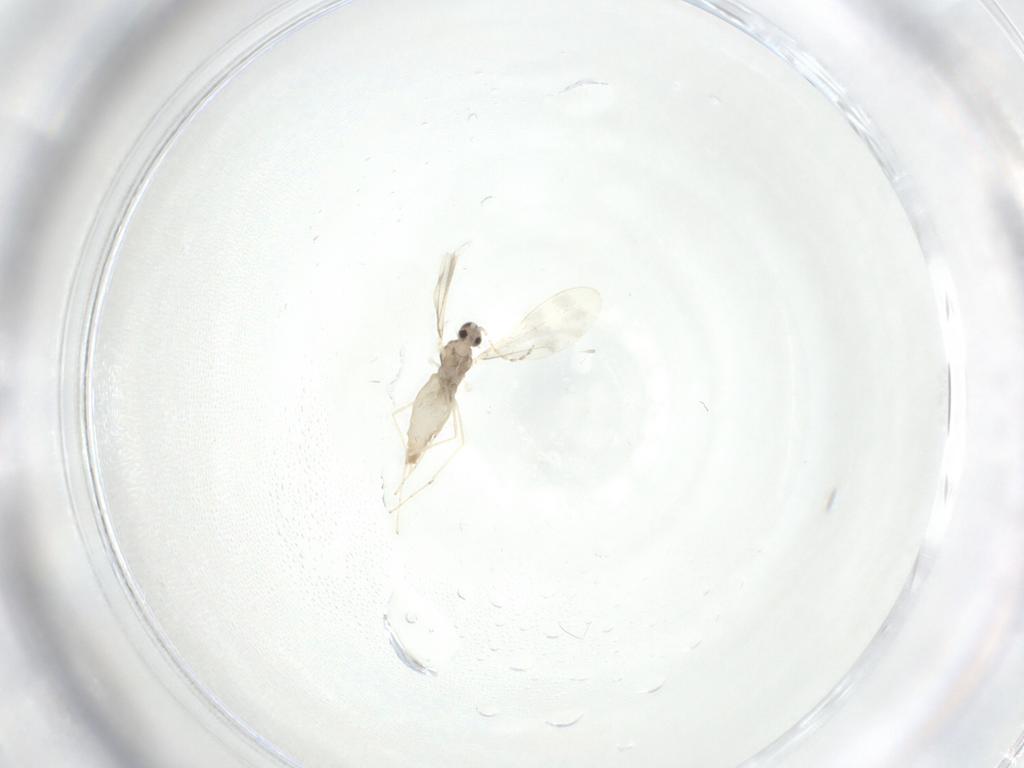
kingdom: Animalia
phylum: Arthropoda
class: Insecta
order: Diptera
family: Cecidomyiidae
